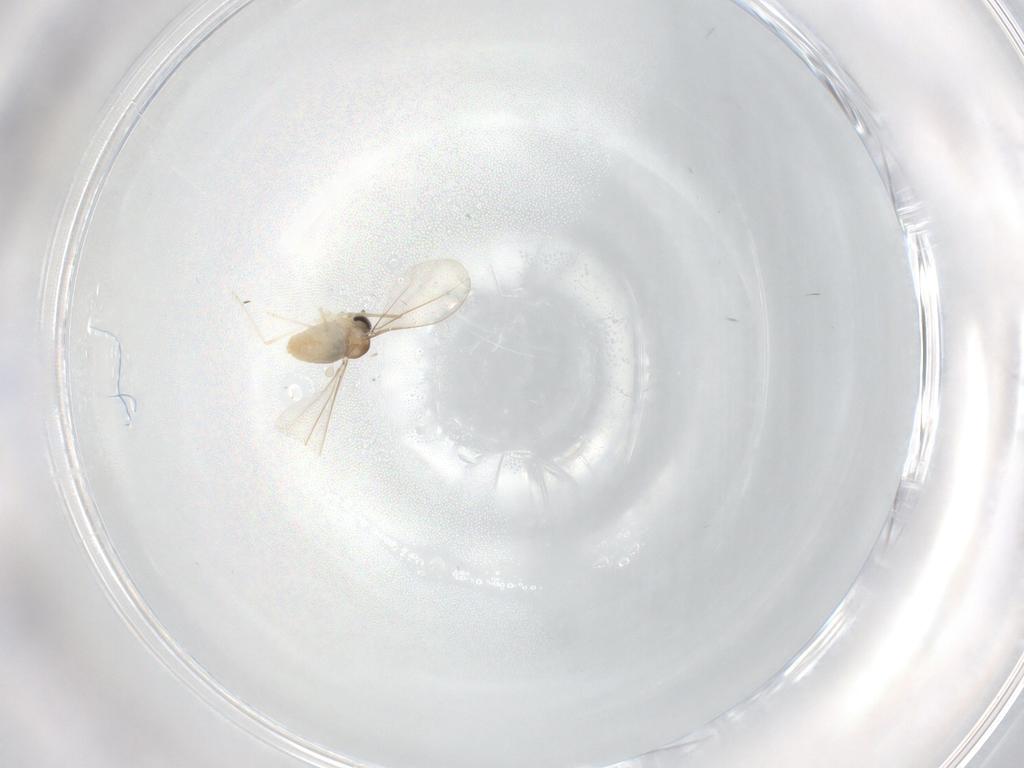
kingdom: Animalia
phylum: Arthropoda
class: Insecta
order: Diptera
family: Cecidomyiidae
